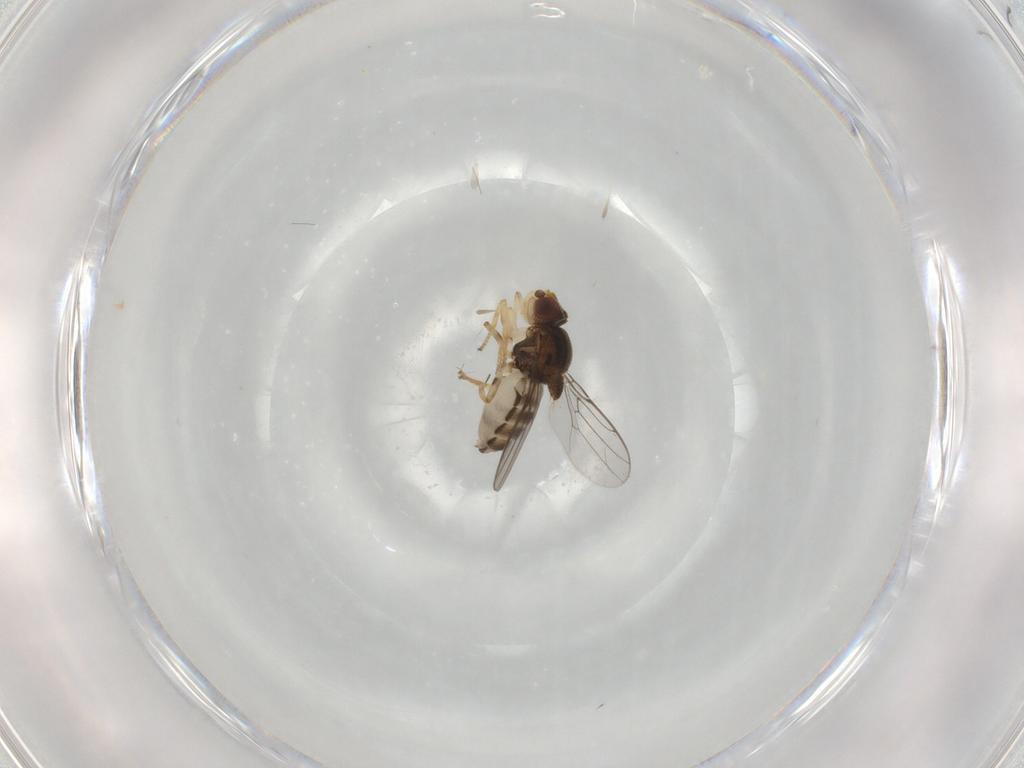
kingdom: Animalia
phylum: Arthropoda
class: Insecta
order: Diptera
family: Chloropidae
